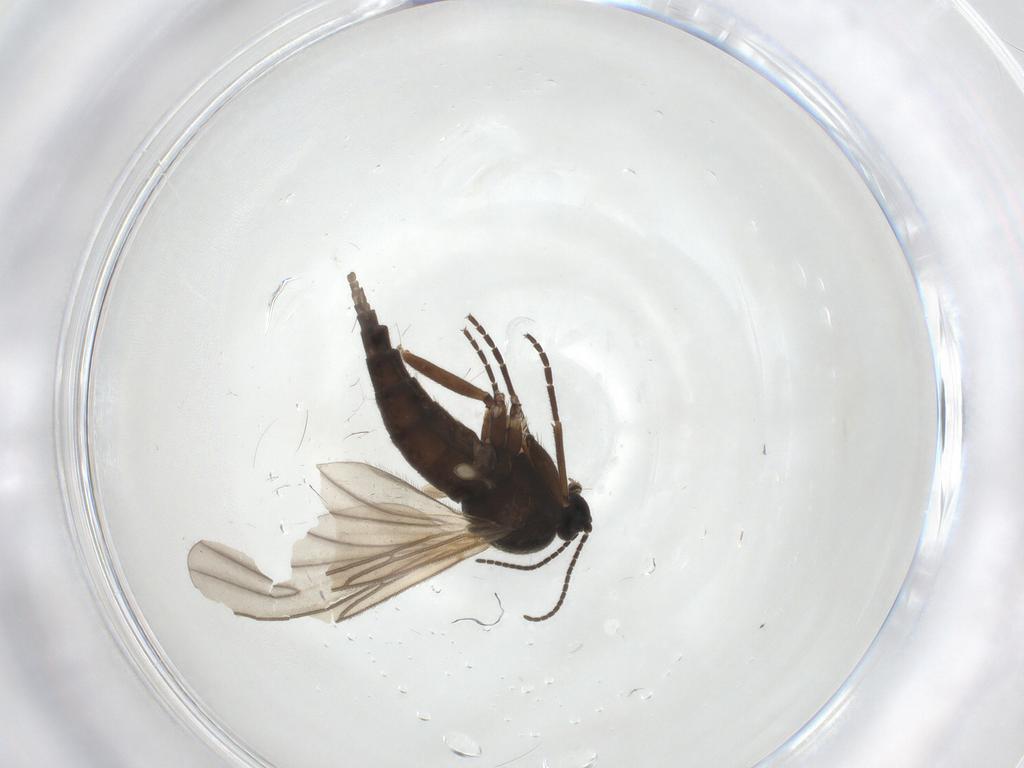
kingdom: Animalia
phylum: Arthropoda
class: Insecta
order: Diptera
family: Sciaridae
